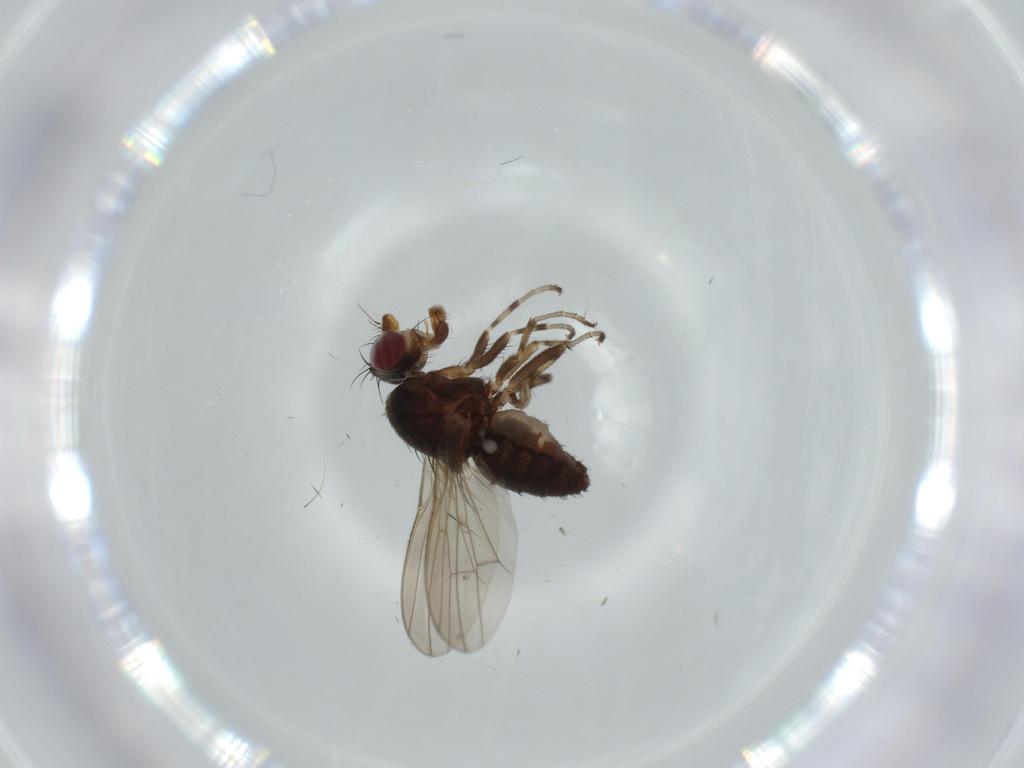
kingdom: Animalia
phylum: Arthropoda
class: Insecta
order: Diptera
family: Heleomyzidae
